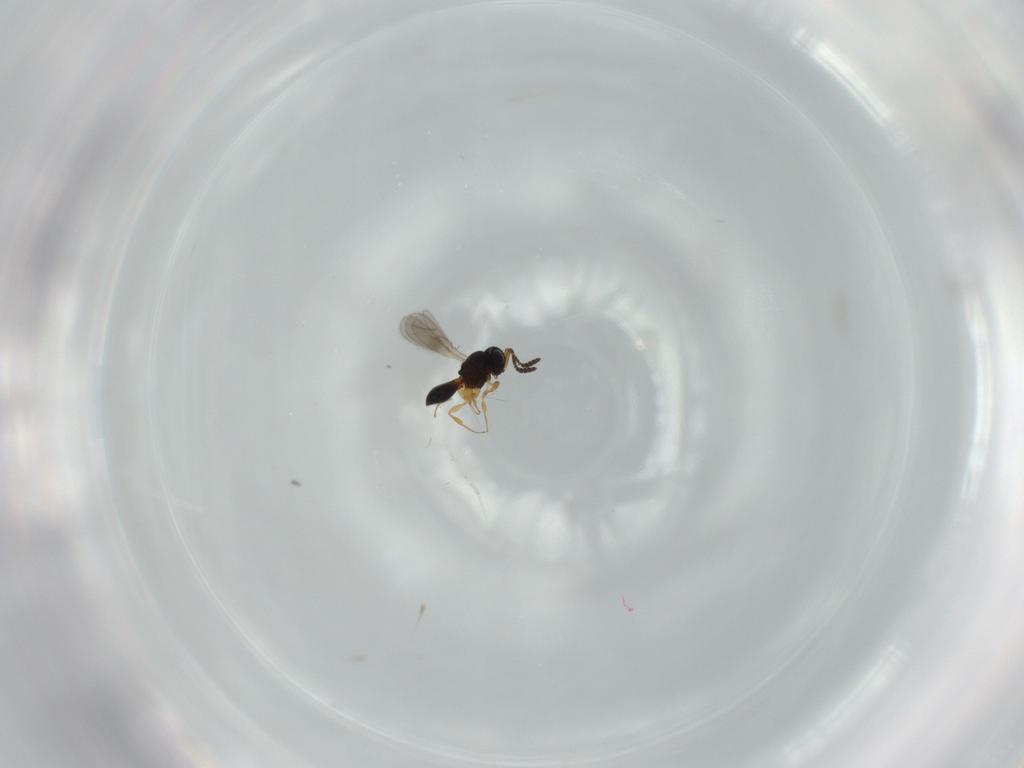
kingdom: Animalia
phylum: Arthropoda
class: Insecta
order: Hymenoptera
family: Scelionidae
